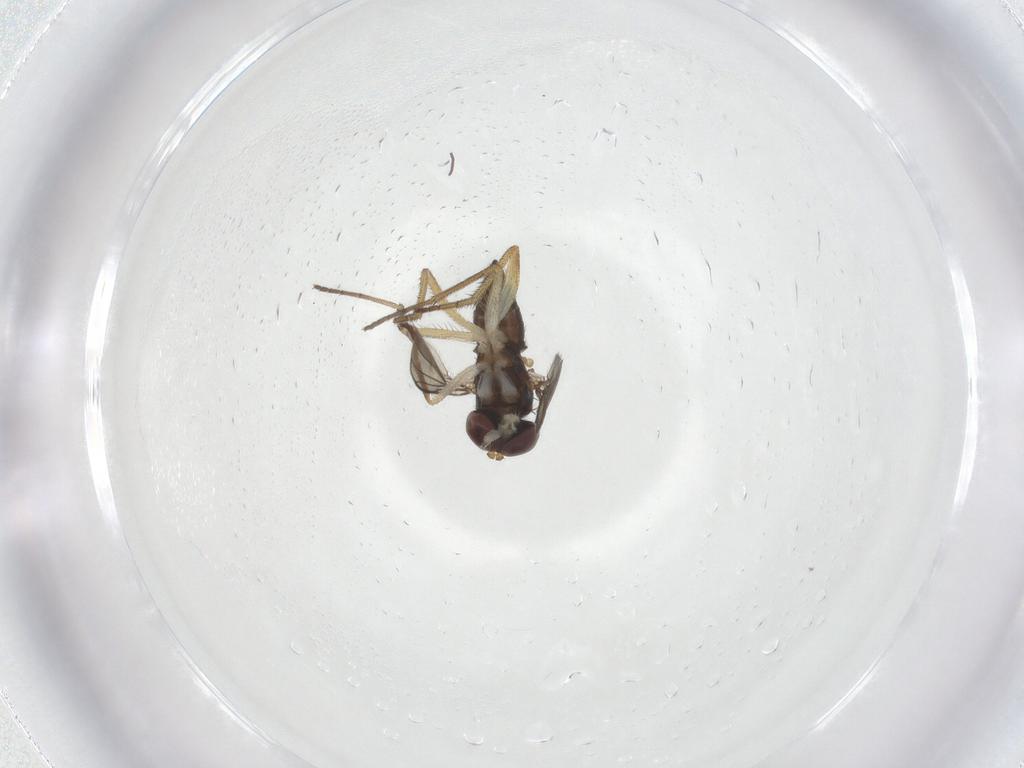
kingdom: Animalia
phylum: Arthropoda
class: Insecta
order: Diptera
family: Dolichopodidae
